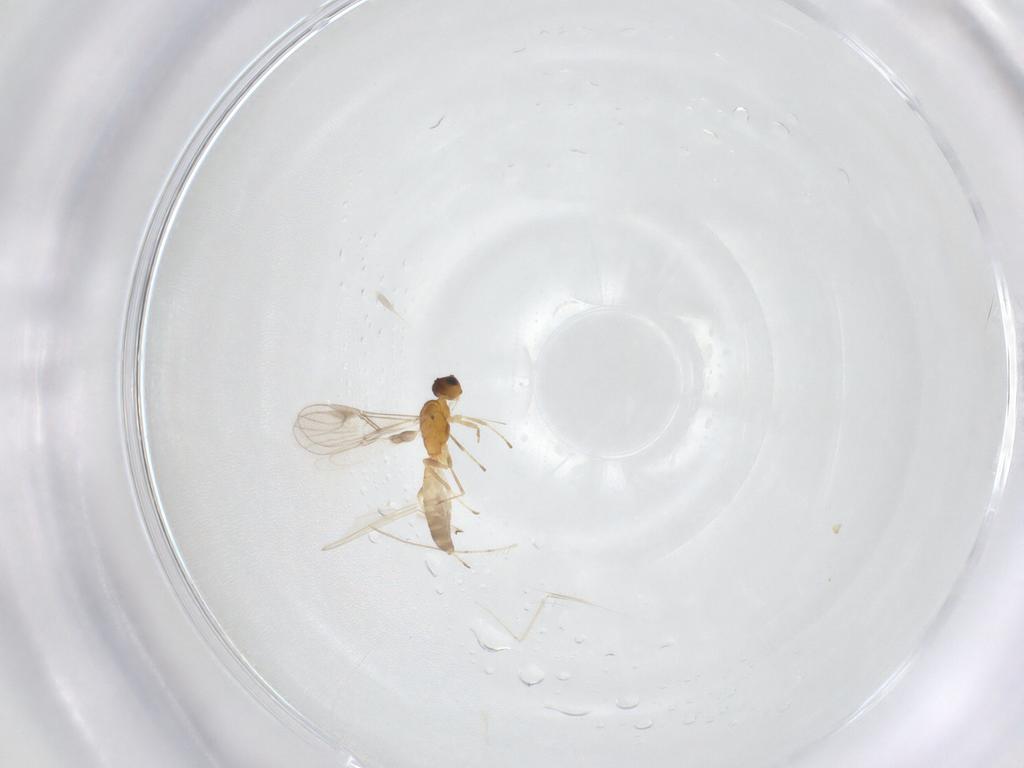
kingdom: Animalia
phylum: Arthropoda
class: Insecta
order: Hymenoptera
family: Braconidae
